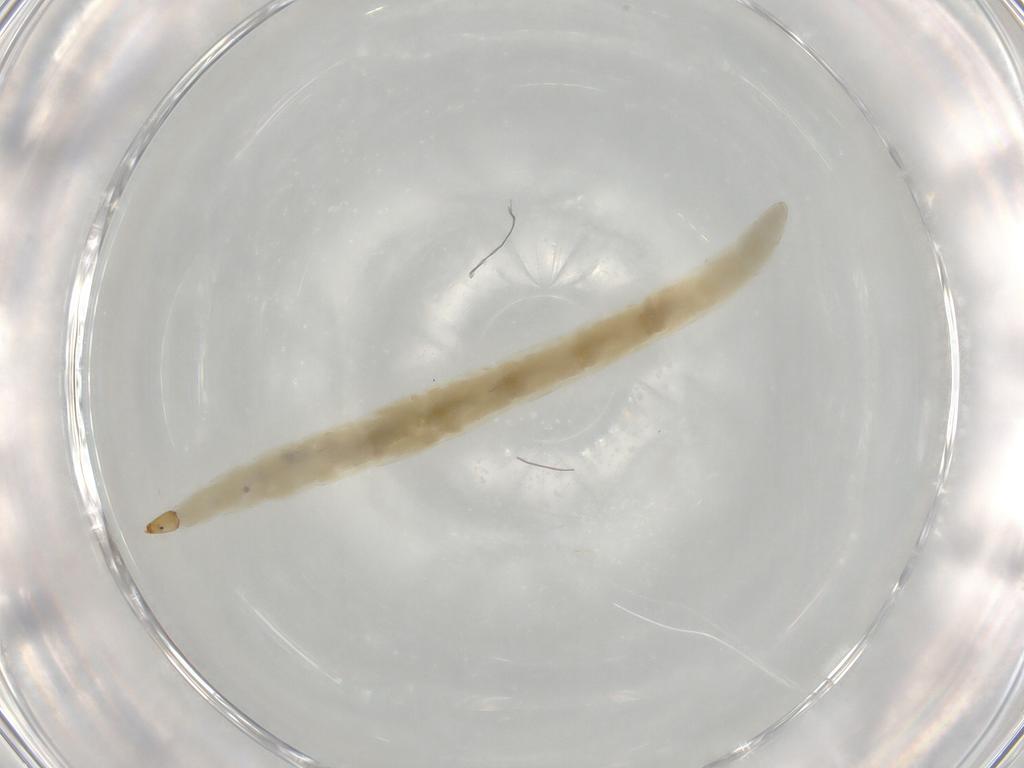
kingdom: Animalia
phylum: Arthropoda
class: Insecta
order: Diptera
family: Ceratopogonidae
